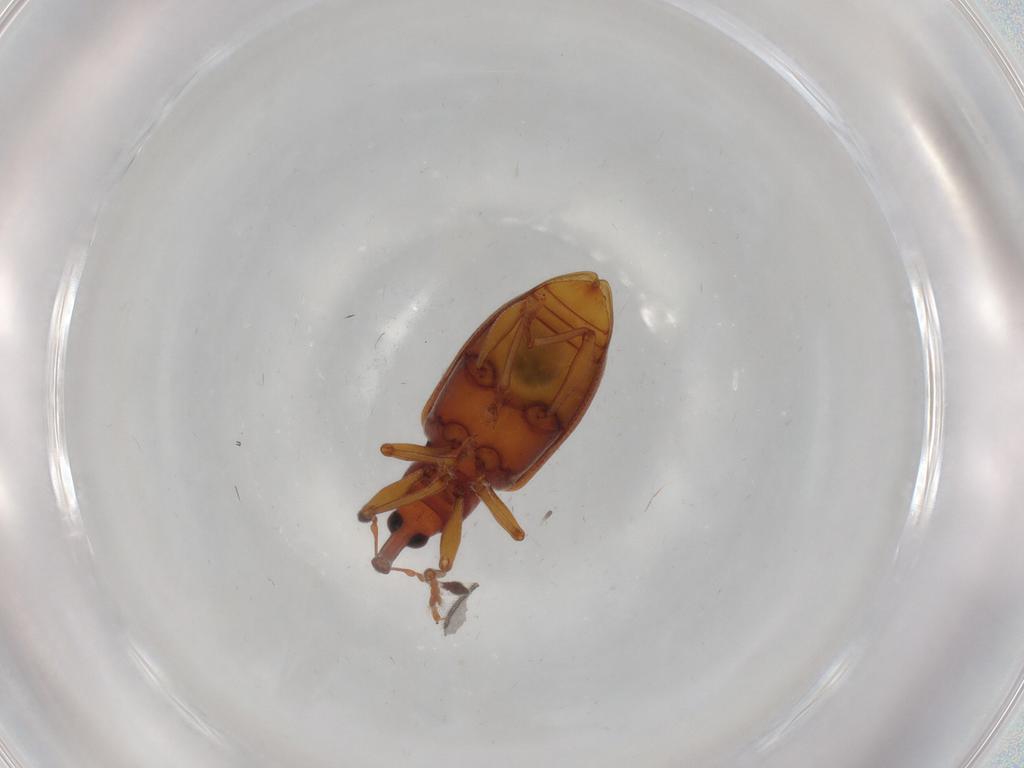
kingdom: Animalia
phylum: Arthropoda
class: Insecta
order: Coleoptera
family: Curculionidae
